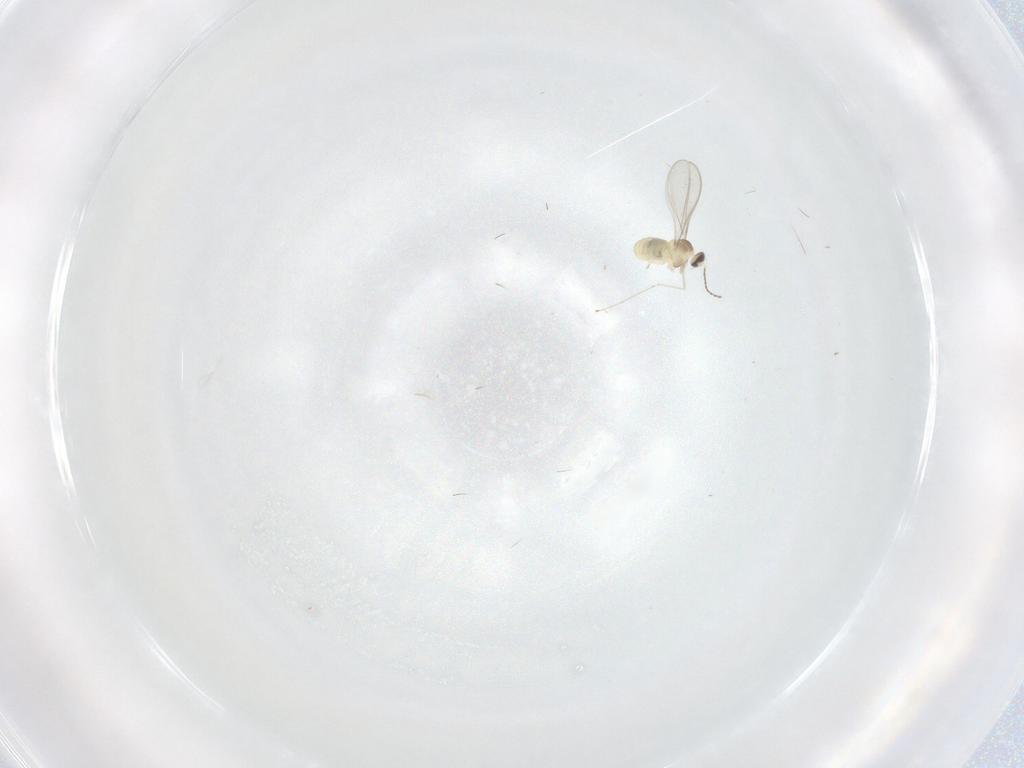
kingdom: Animalia
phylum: Arthropoda
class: Insecta
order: Diptera
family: Cecidomyiidae
